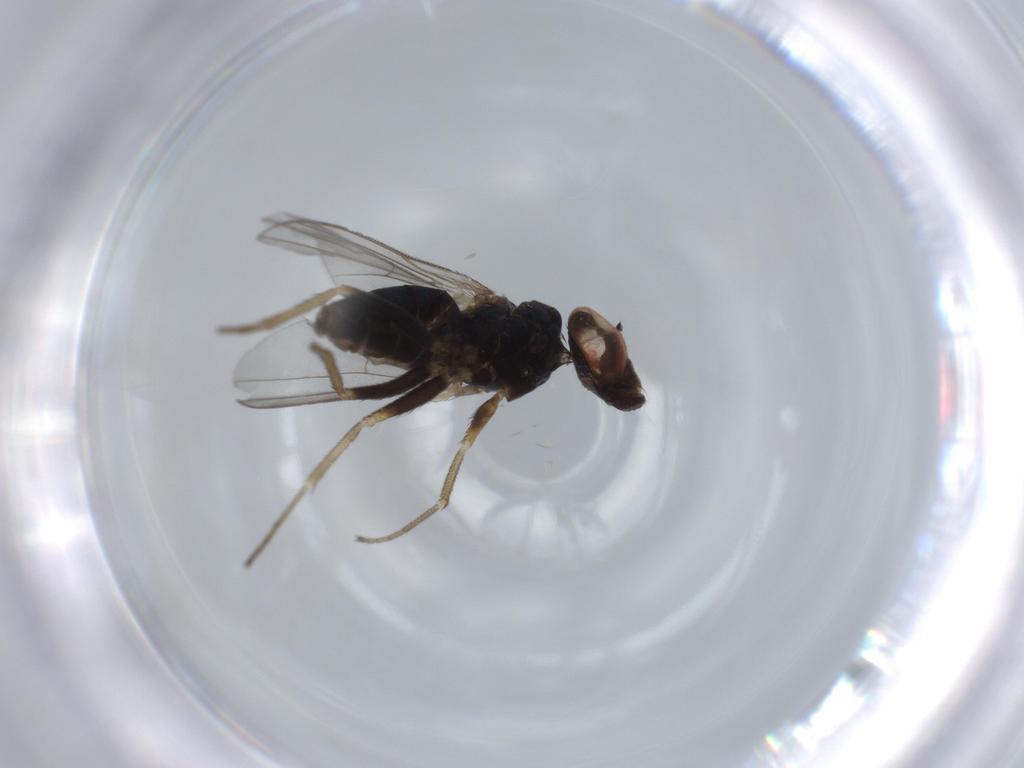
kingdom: Animalia
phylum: Arthropoda
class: Insecta
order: Diptera
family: Dolichopodidae
